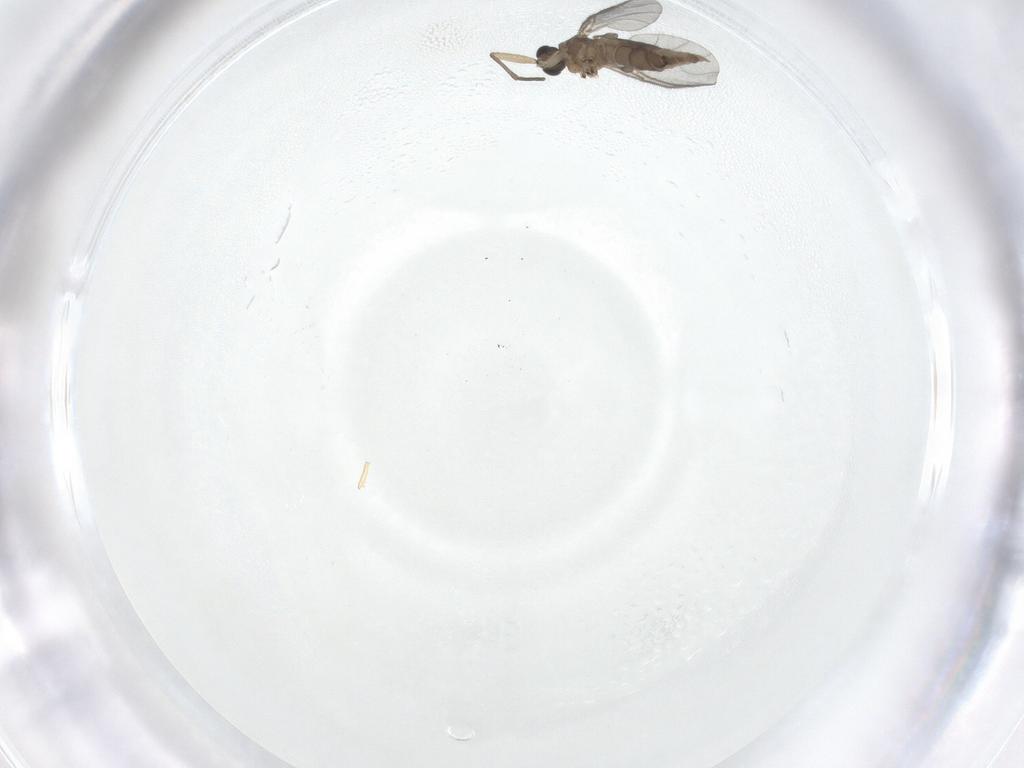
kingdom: Animalia
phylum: Arthropoda
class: Insecta
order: Diptera
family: Sciaridae
